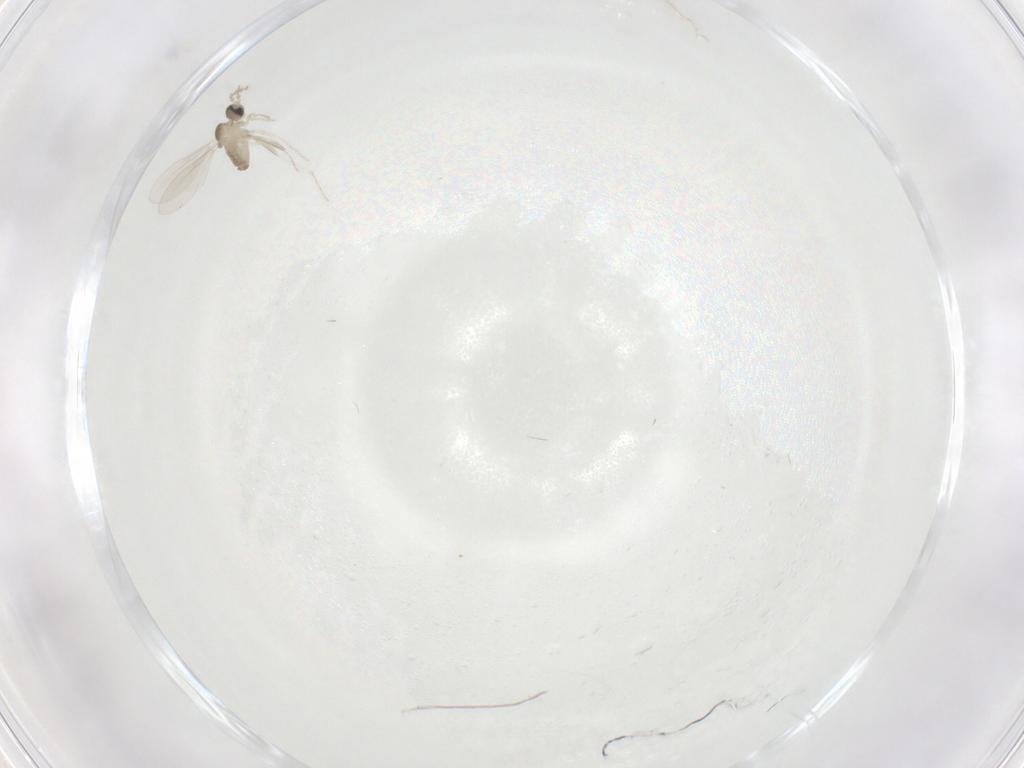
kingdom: Animalia
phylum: Arthropoda
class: Insecta
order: Diptera
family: Cecidomyiidae
